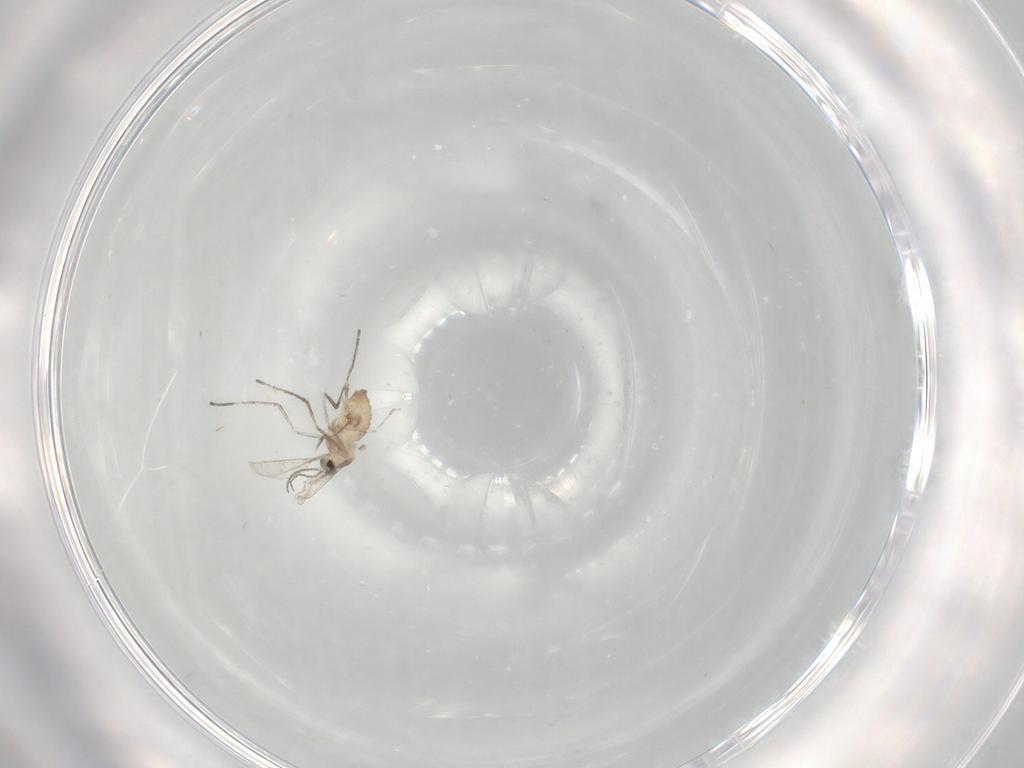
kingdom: Animalia
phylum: Arthropoda
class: Insecta
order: Diptera
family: Cecidomyiidae
